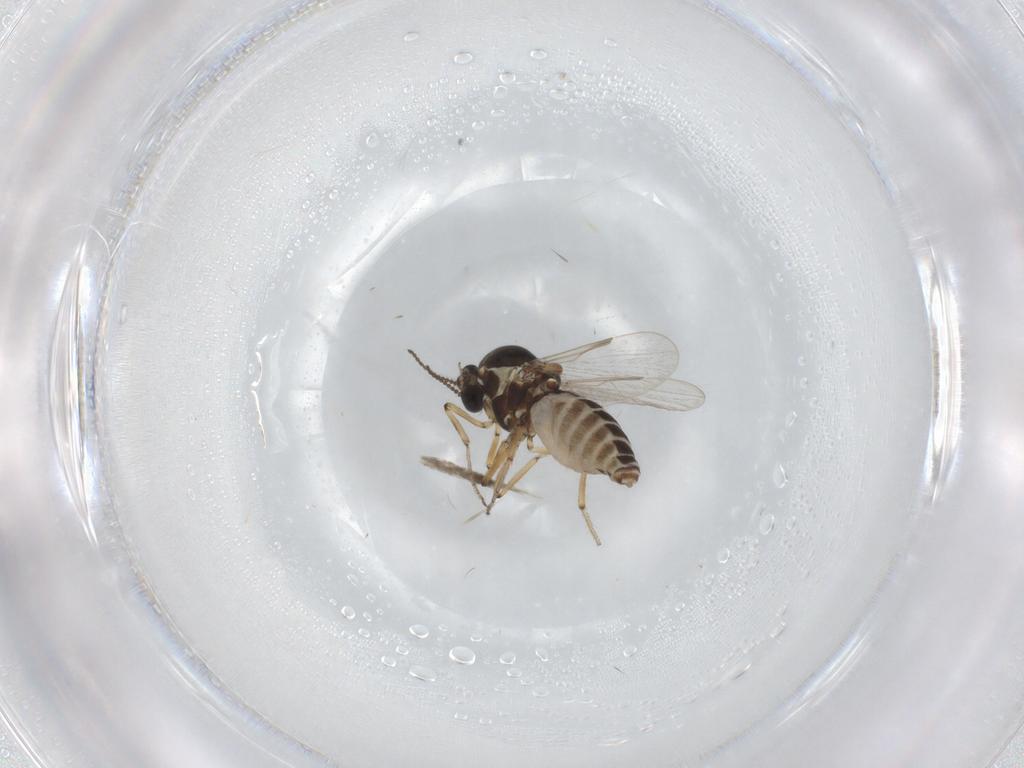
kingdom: Animalia
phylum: Arthropoda
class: Insecta
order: Diptera
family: Ceratopogonidae
